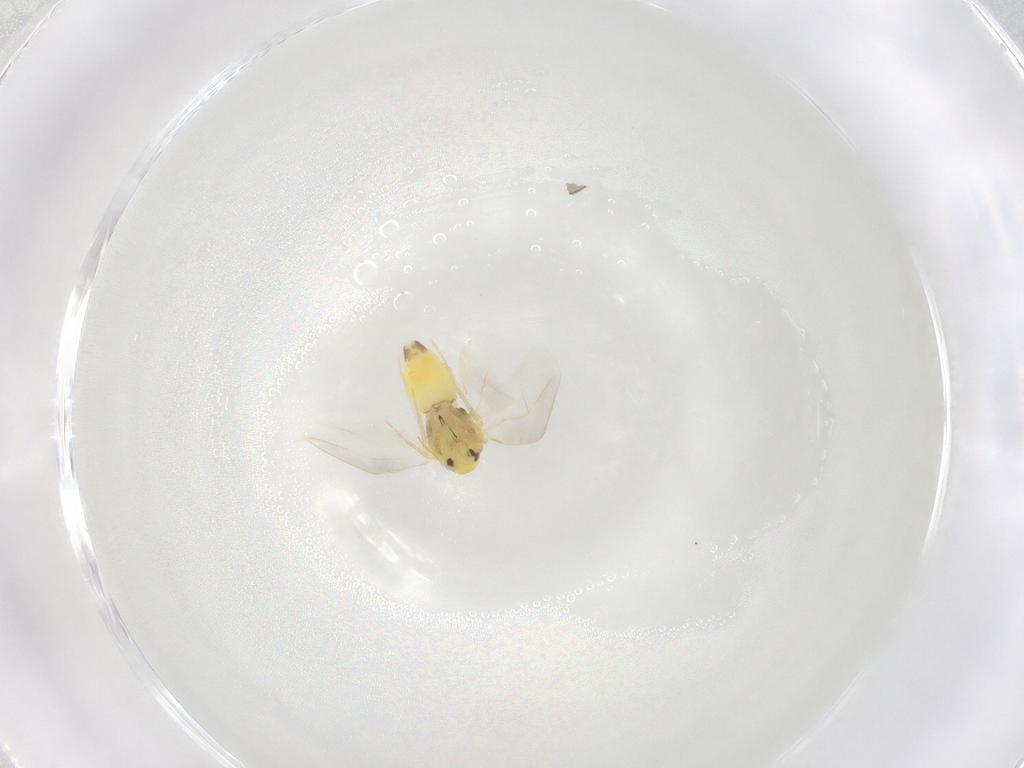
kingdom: Animalia
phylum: Arthropoda
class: Insecta
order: Hemiptera
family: Aleyrodidae
